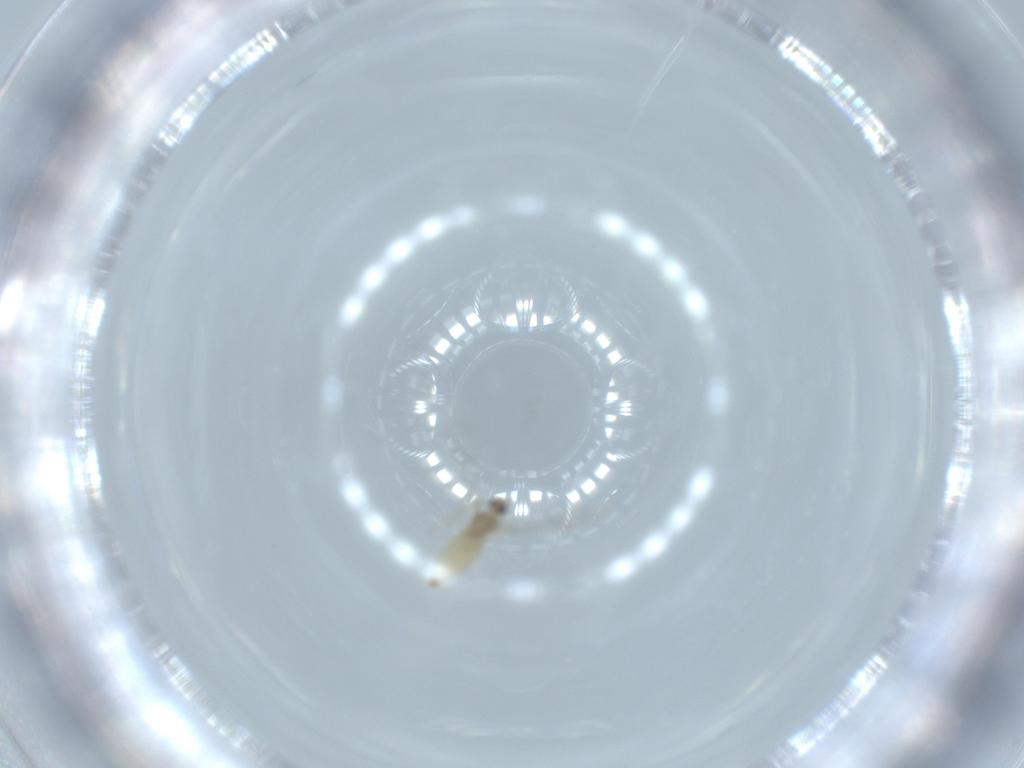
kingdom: Animalia
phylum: Arthropoda
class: Insecta
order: Diptera
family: Cecidomyiidae
